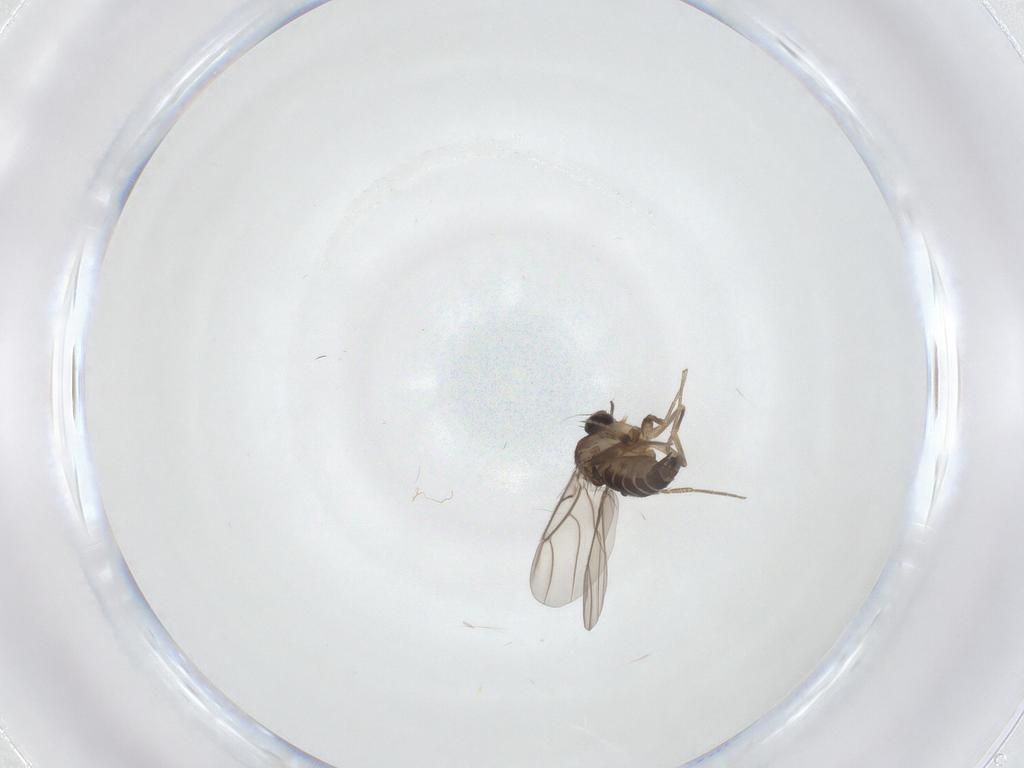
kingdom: Animalia
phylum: Arthropoda
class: Insecta
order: Diptera
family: Phoridae
